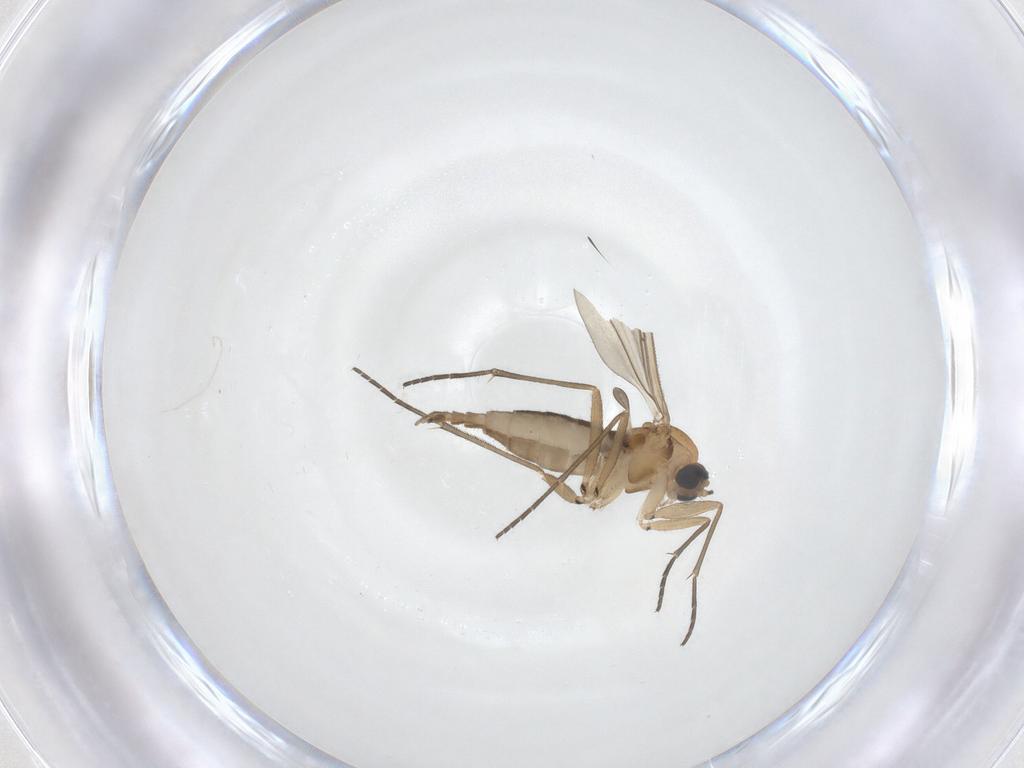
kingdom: Animalia
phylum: Arthropoda
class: Insecta
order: Diptera
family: Sciaridae
